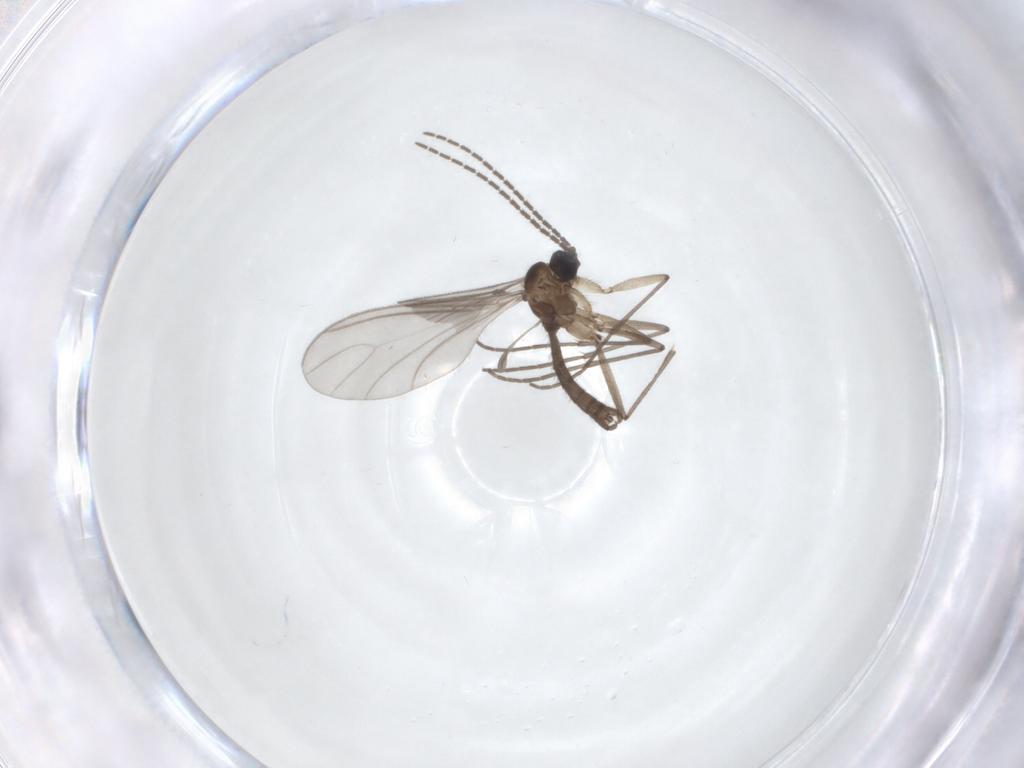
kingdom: Animalia
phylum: Arthropoda
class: Insecta
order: Diptera
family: Sciaridae
